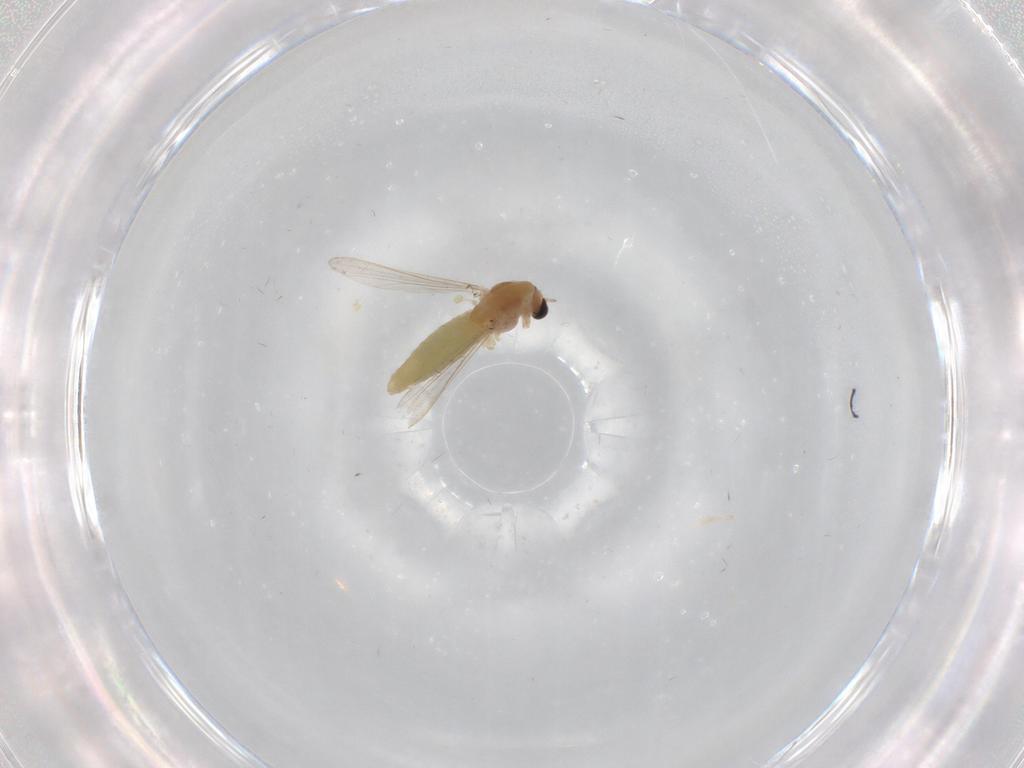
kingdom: Animalia
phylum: Arthropoda
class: Insecta
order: Diptera
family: Chironomidae
